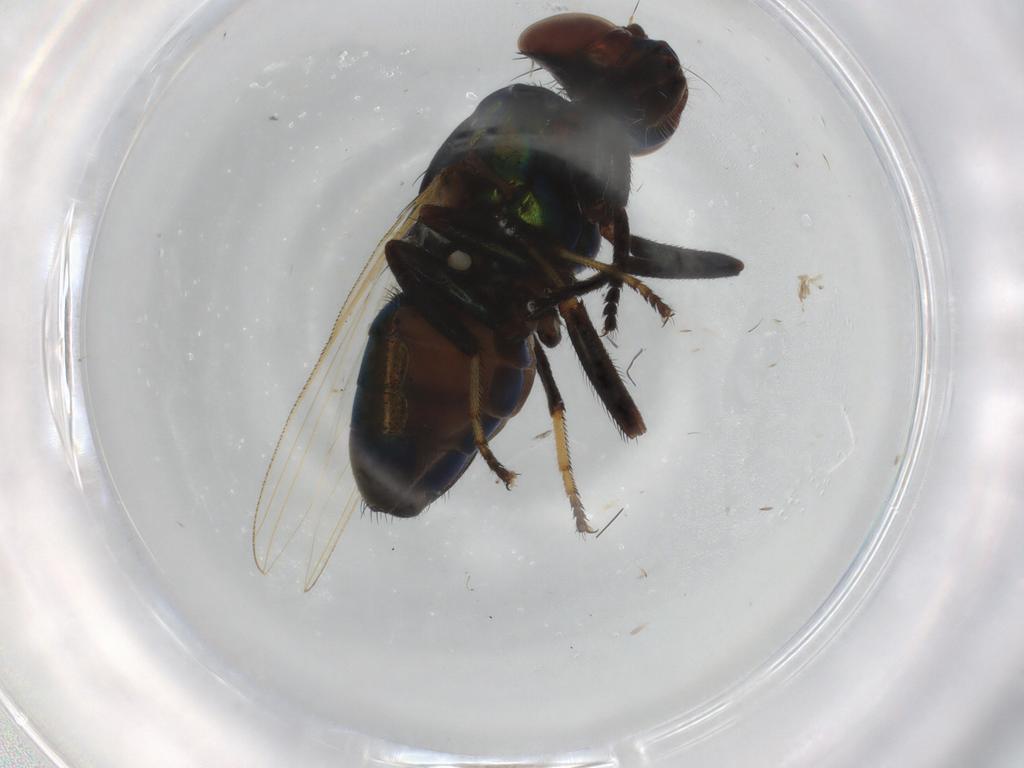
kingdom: Animalia
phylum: Arthropoda
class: Insecta
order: Diptera
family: Ulidiidae
